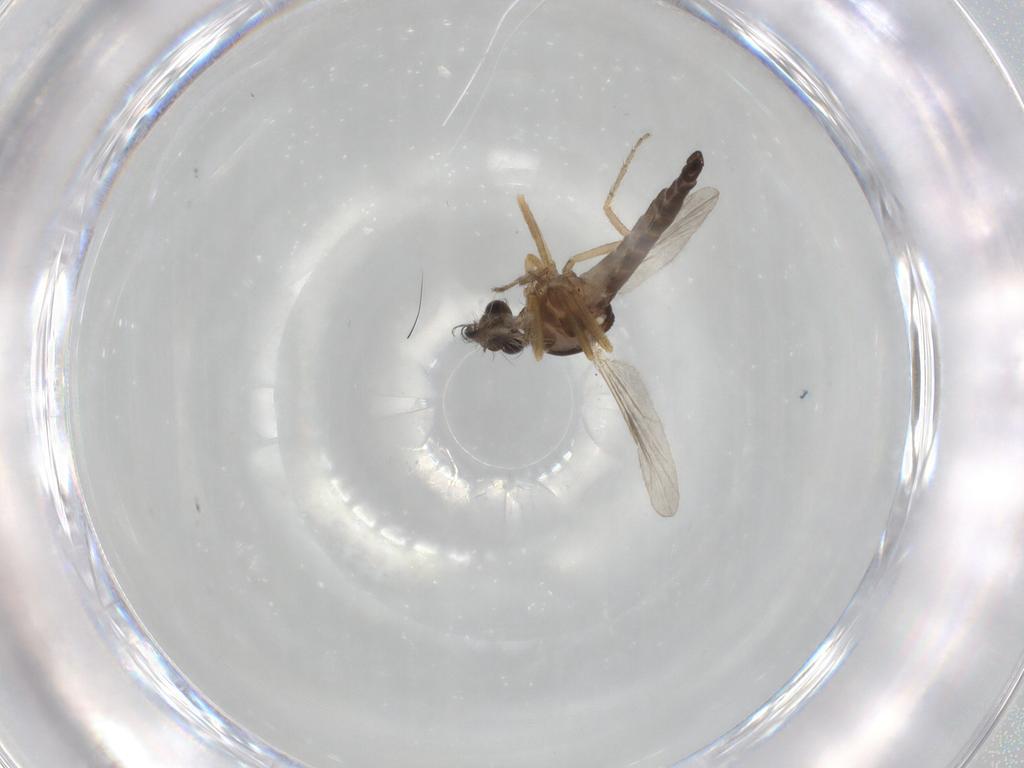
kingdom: Animalia
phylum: Arthropoda
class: Insecta
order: Diptera
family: Ceratopogonidae
